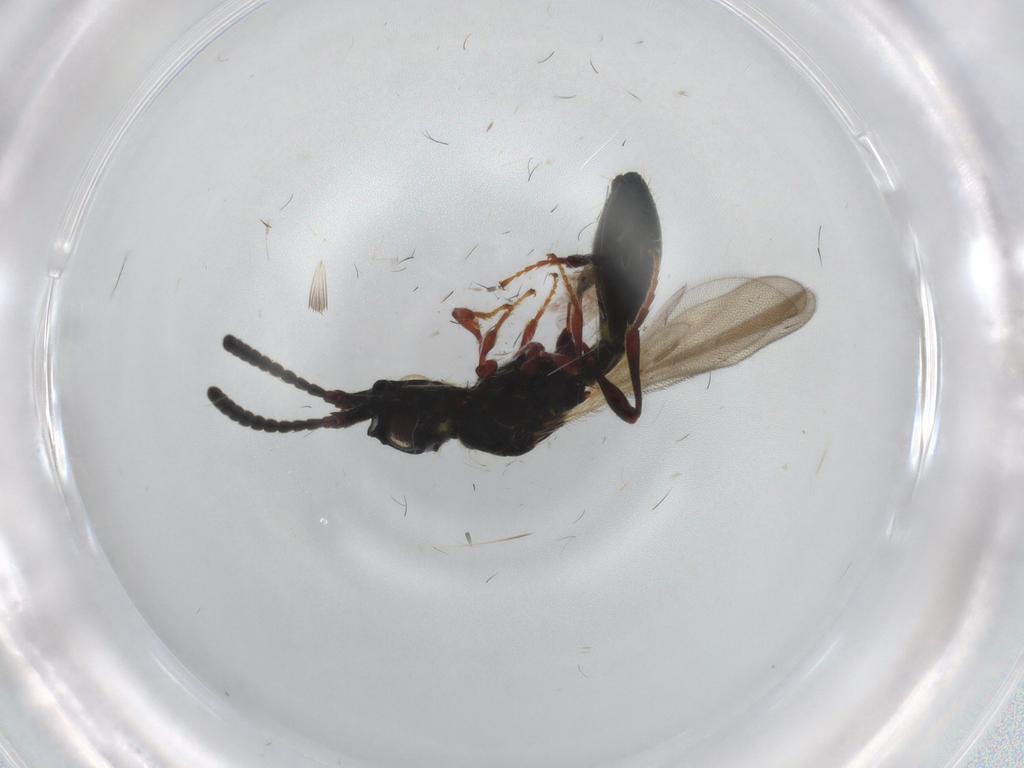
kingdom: Animalia
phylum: Arthropoda
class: Insecta
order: Hymenoptera
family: Diapriidae
